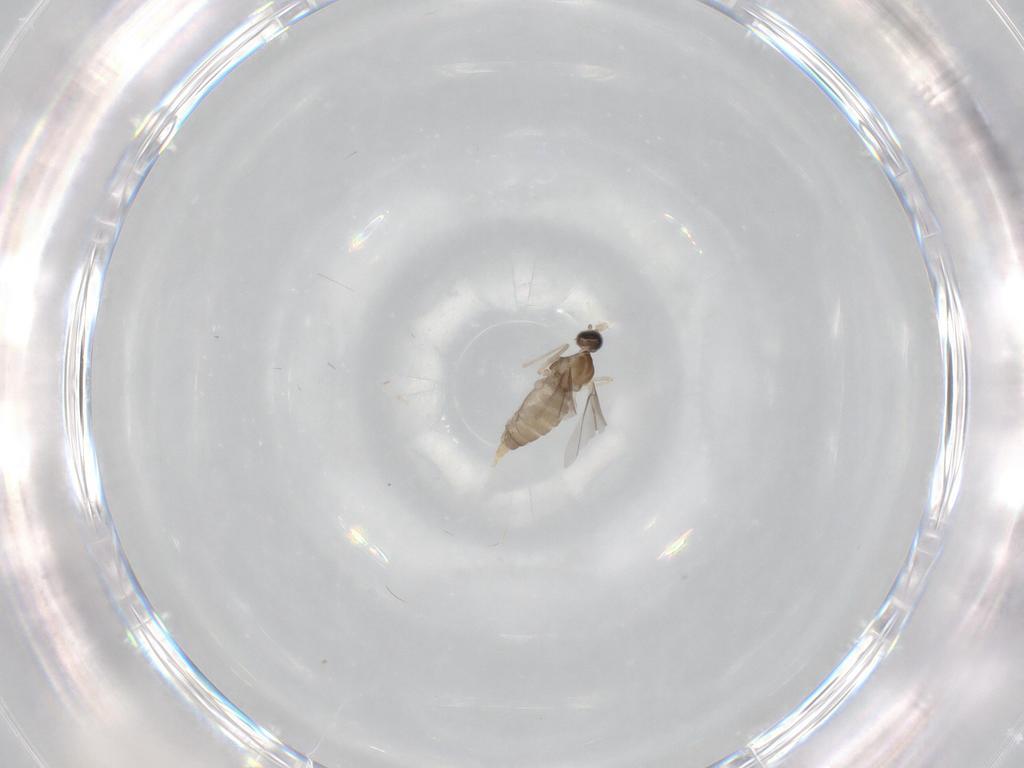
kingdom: Animalia
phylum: Arthropoda
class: Insecta
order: Diptera
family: Cecidomyiidae
